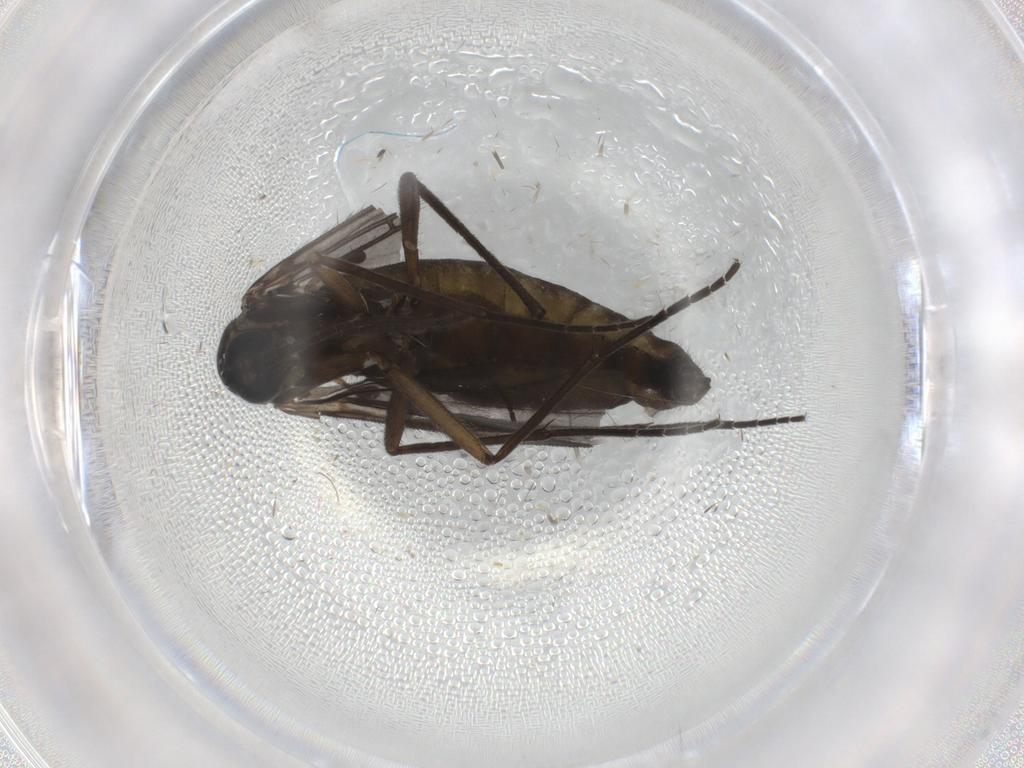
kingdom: Animalia
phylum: Arthropoda
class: Insecta
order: Diptera
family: Sciaridae
